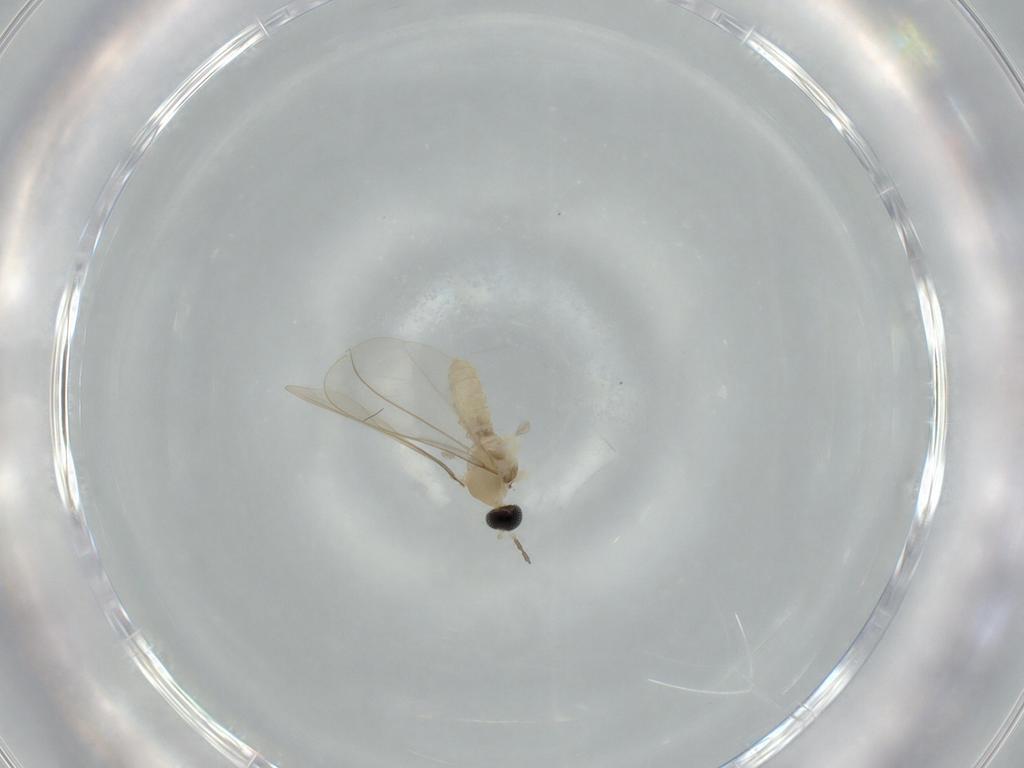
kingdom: Animalia
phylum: Arthropoda
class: Insecta
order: Diptera
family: Cecidomyiidae
